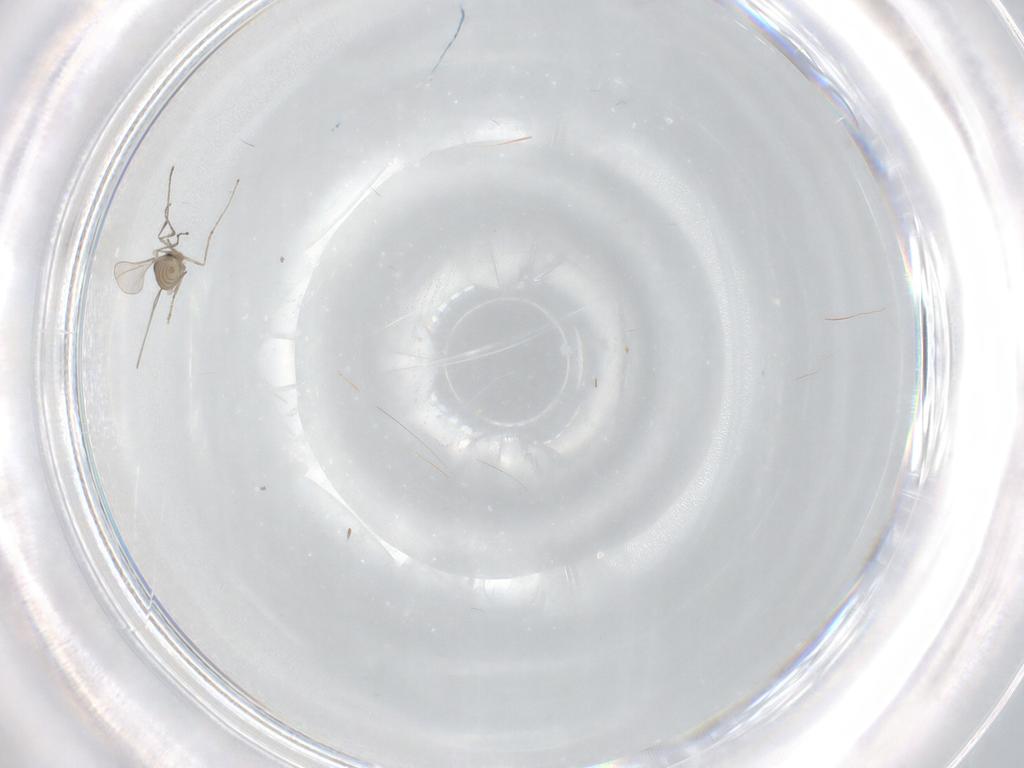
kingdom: Animalia
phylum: Arthropoda
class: Insecta
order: Diptera
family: Cecidomyiidae
